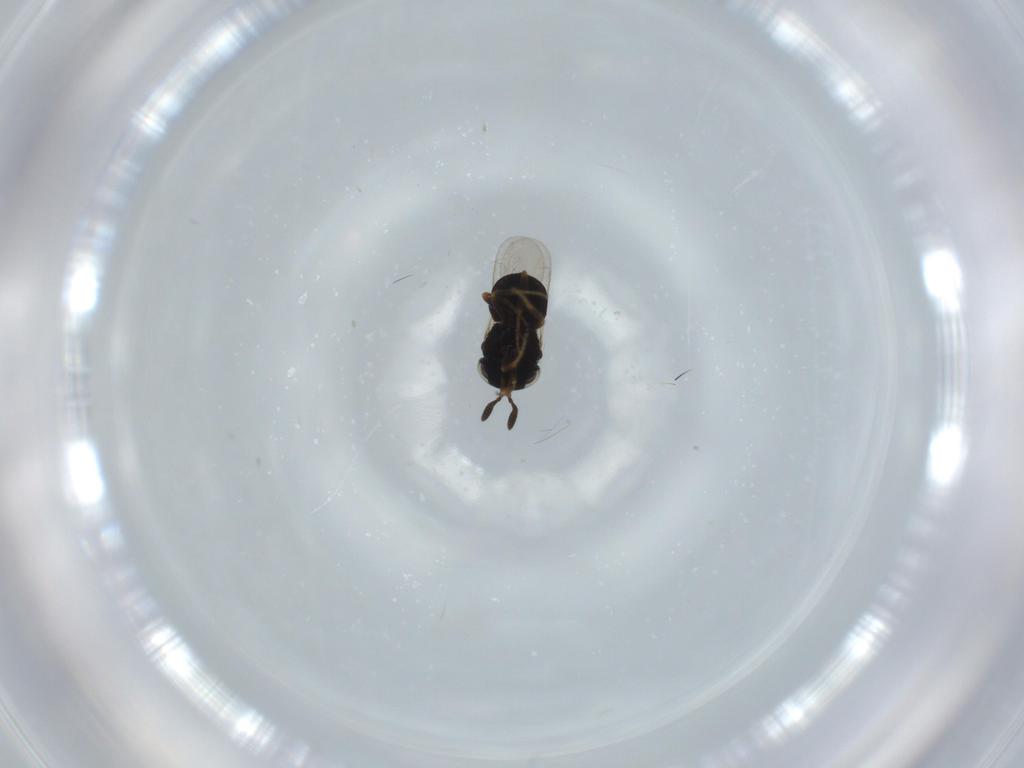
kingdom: Animalia
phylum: Arthropoda
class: Insecta
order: Hymenoptera
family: Scelionidae
